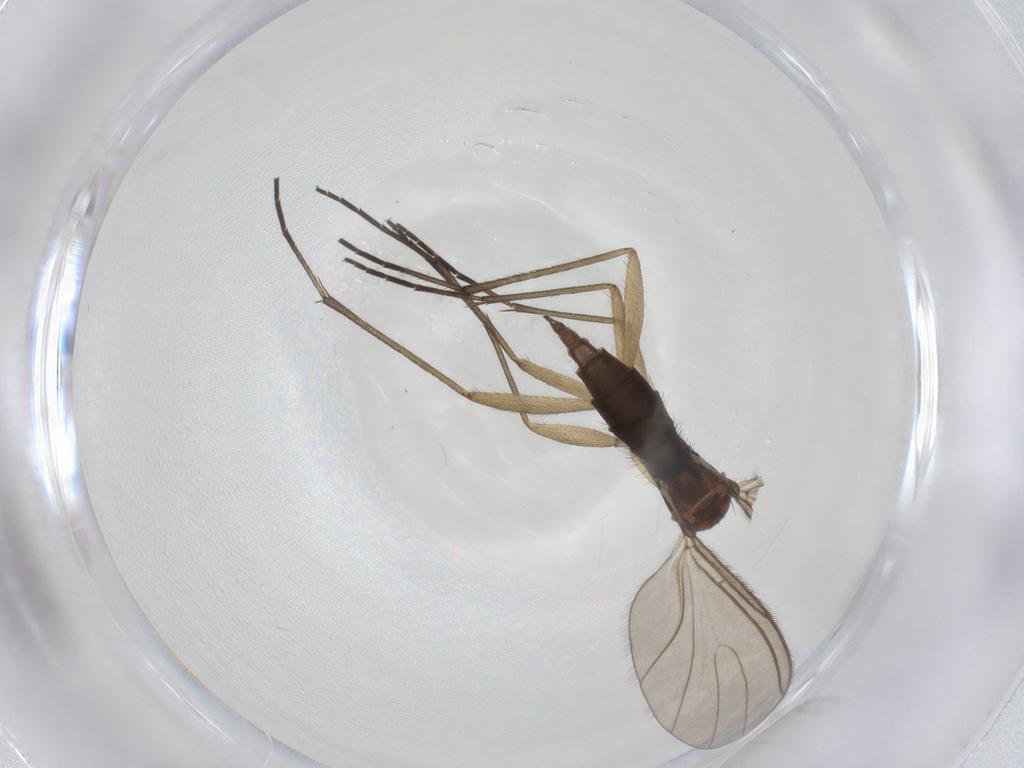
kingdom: Animalia
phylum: Arthropoda
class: Insecta
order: Diptera
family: Sciaridae
